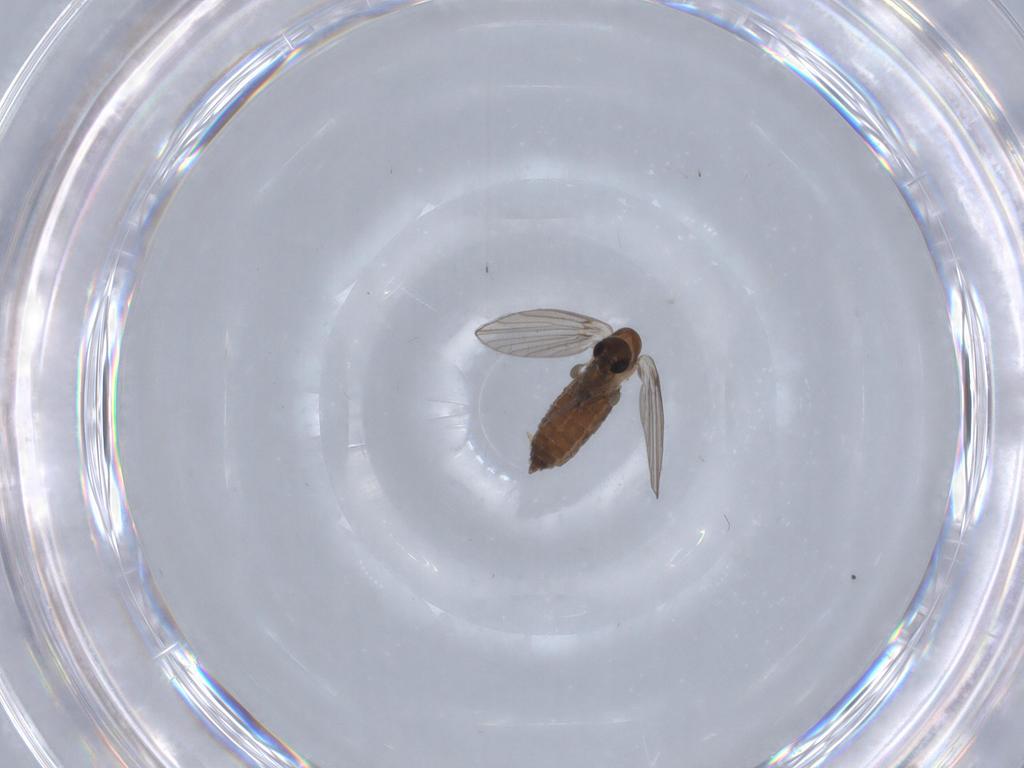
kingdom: Animalia
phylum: Arthropoda
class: Insecta
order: Diptera
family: Sciaridae
